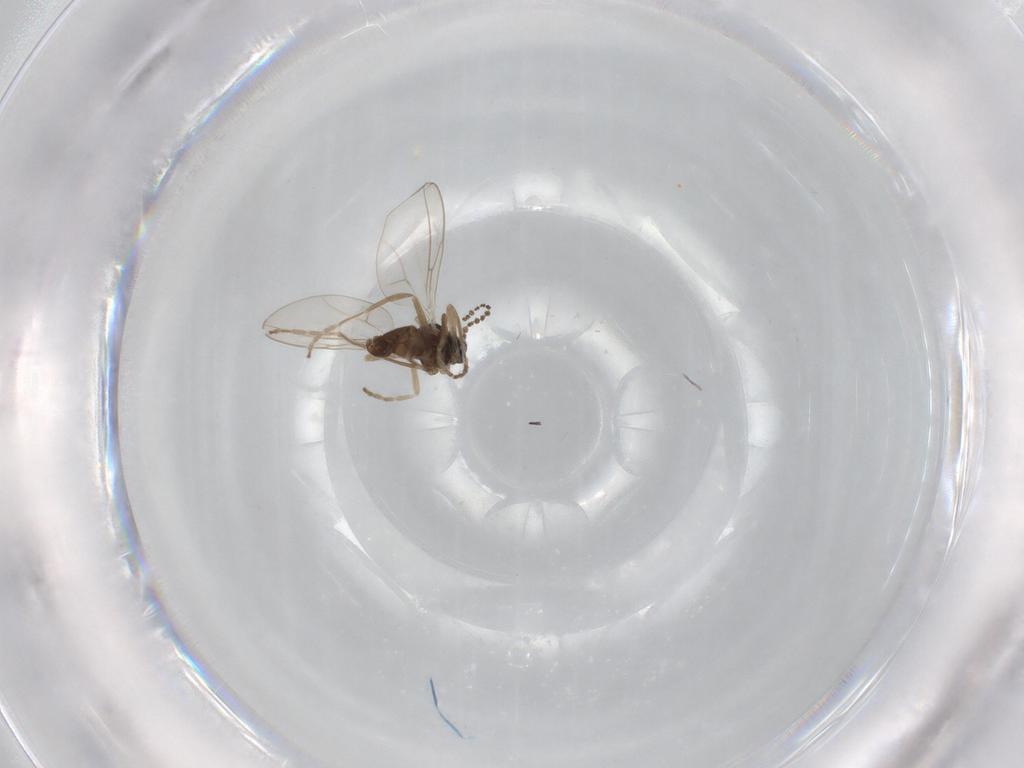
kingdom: Animalia
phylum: Arthropoda
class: Insecta
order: Diptera
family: Cecidomyiidae
